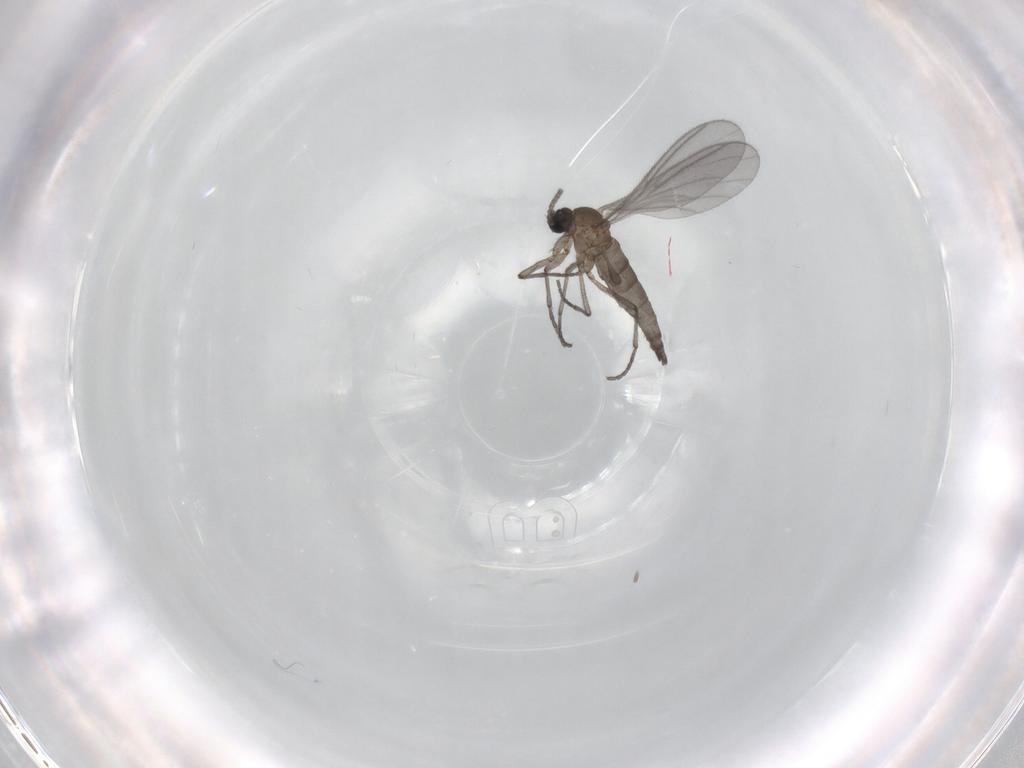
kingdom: Animalia
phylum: Arthropoda
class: Insecta
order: Diptera
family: Sciaridae
